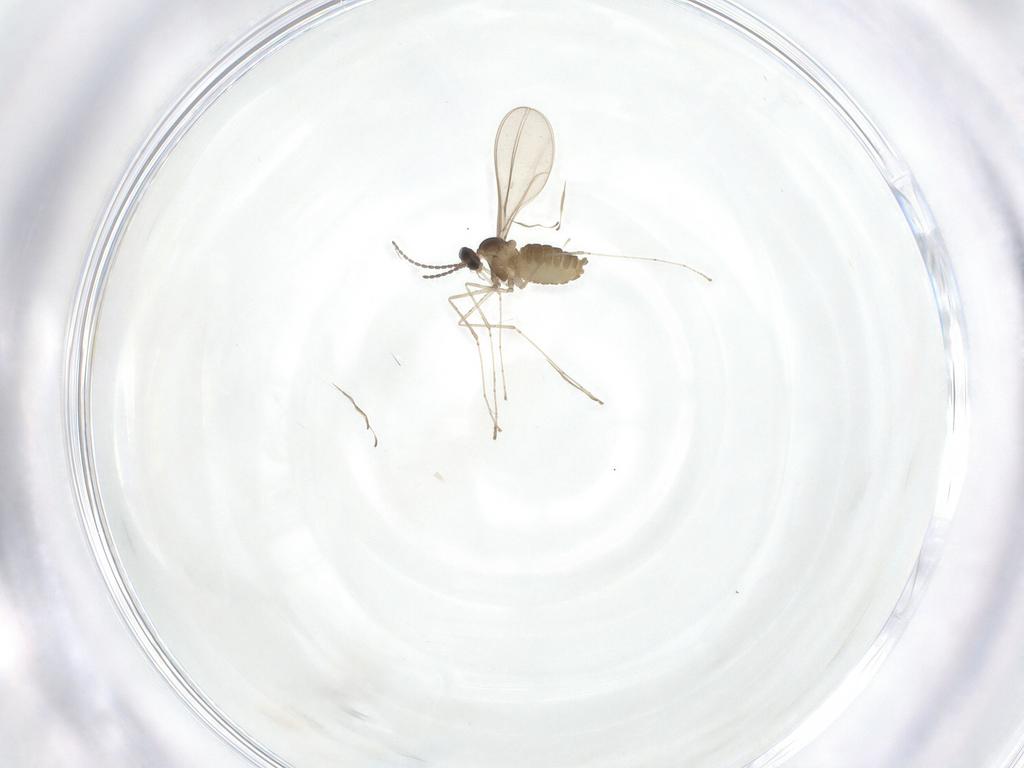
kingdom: Animalia
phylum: Arthropoda
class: Insecta
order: Diptera
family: Cecidomyiidae
